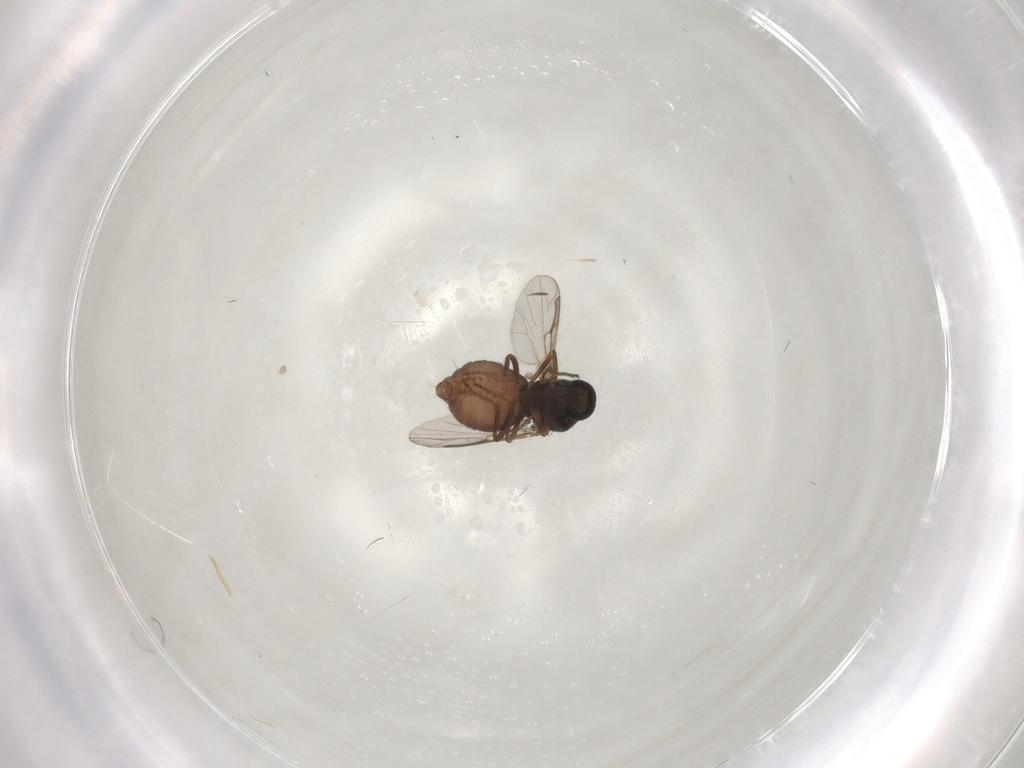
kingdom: Animalia
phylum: Arthropoda
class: Insecta
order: Diptera
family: Ceratopogonidae
